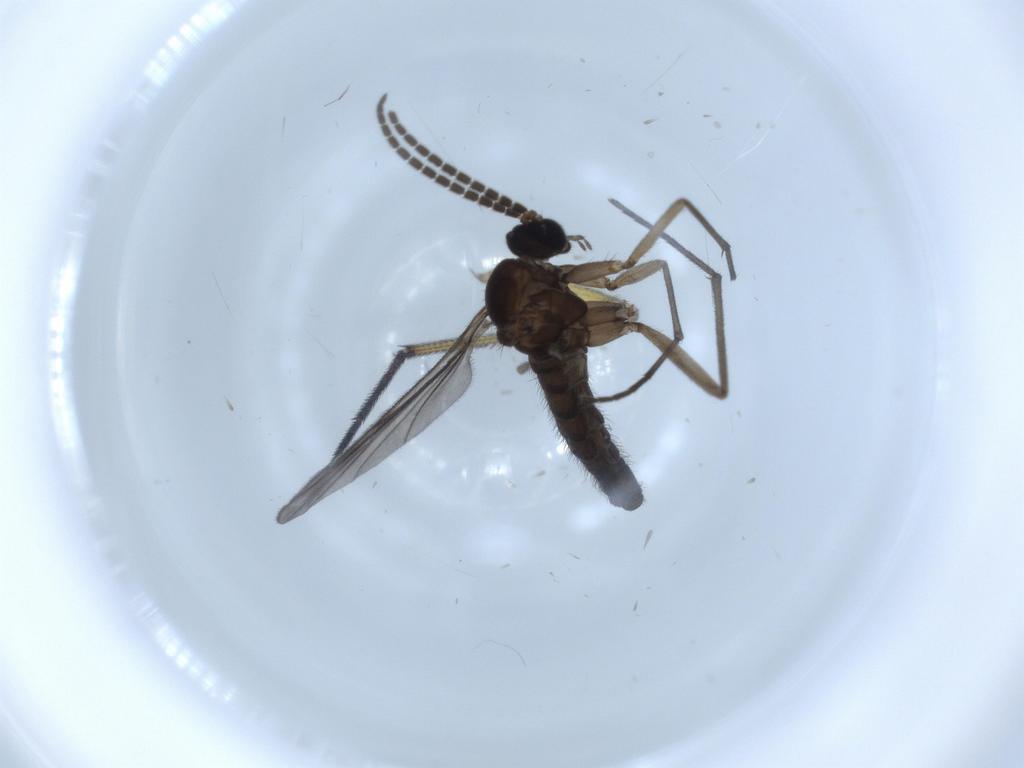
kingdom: Animalia
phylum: Arthropoda
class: Insecta
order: Diptera
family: Sciaridae
